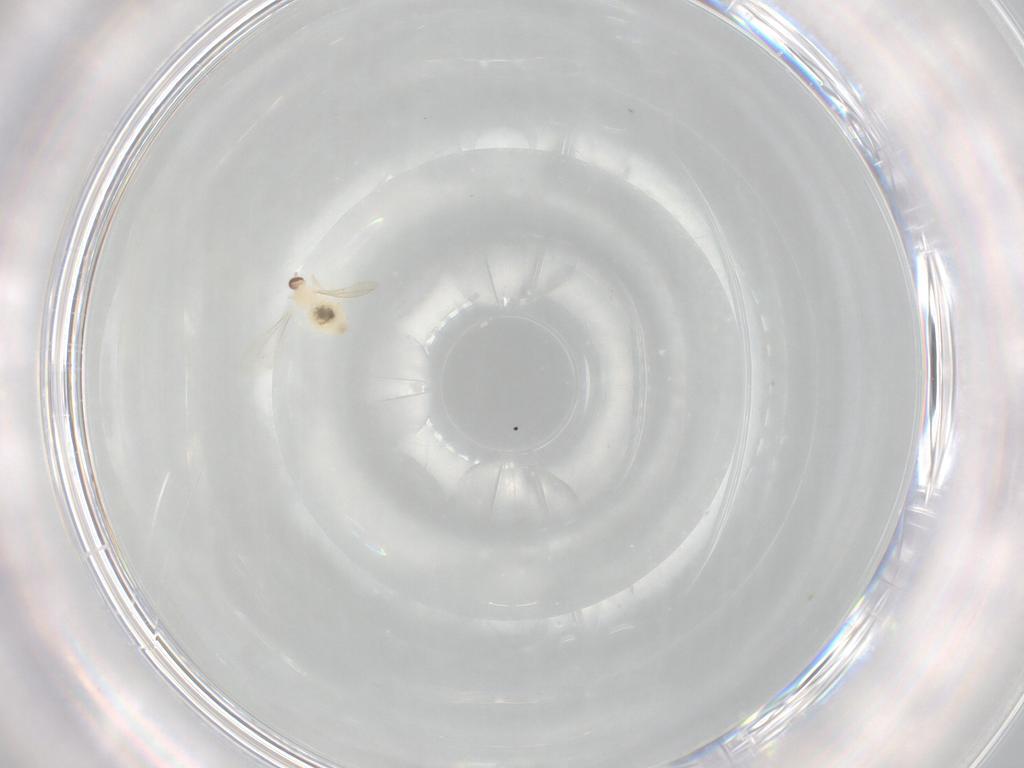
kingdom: Animalia
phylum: Arthropoda
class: Insecta
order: Diptera
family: Cecidomyiidae
